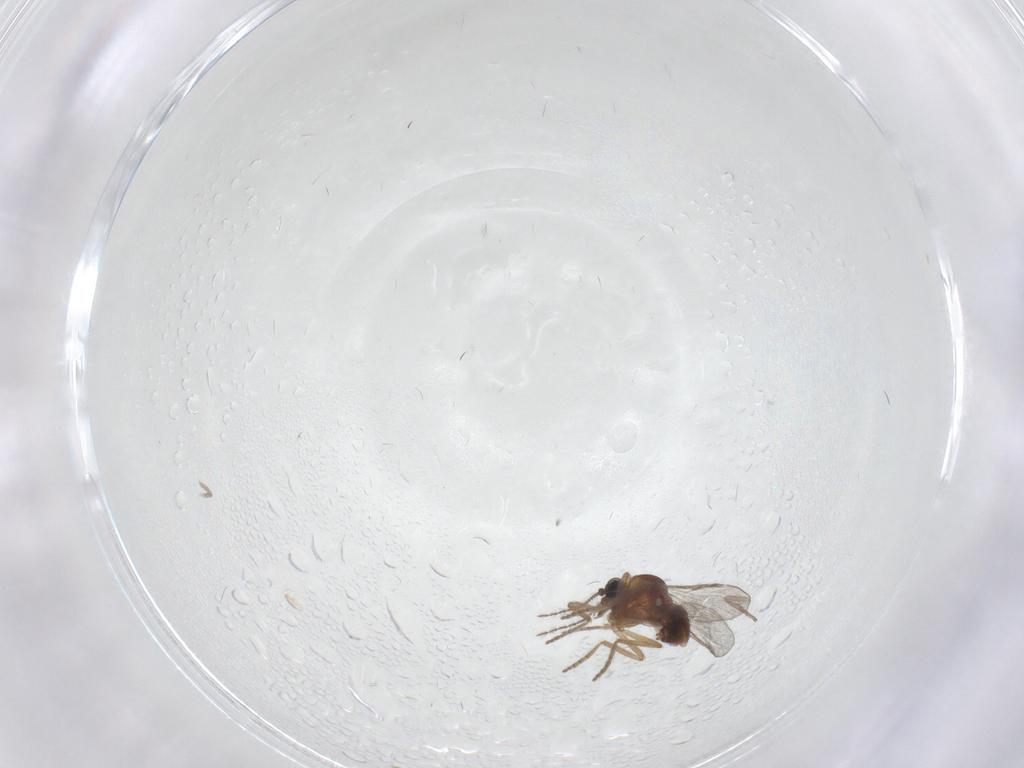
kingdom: Animalia
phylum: Arthropoda
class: Insecta
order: Diptera
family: Ceratopogonidae
